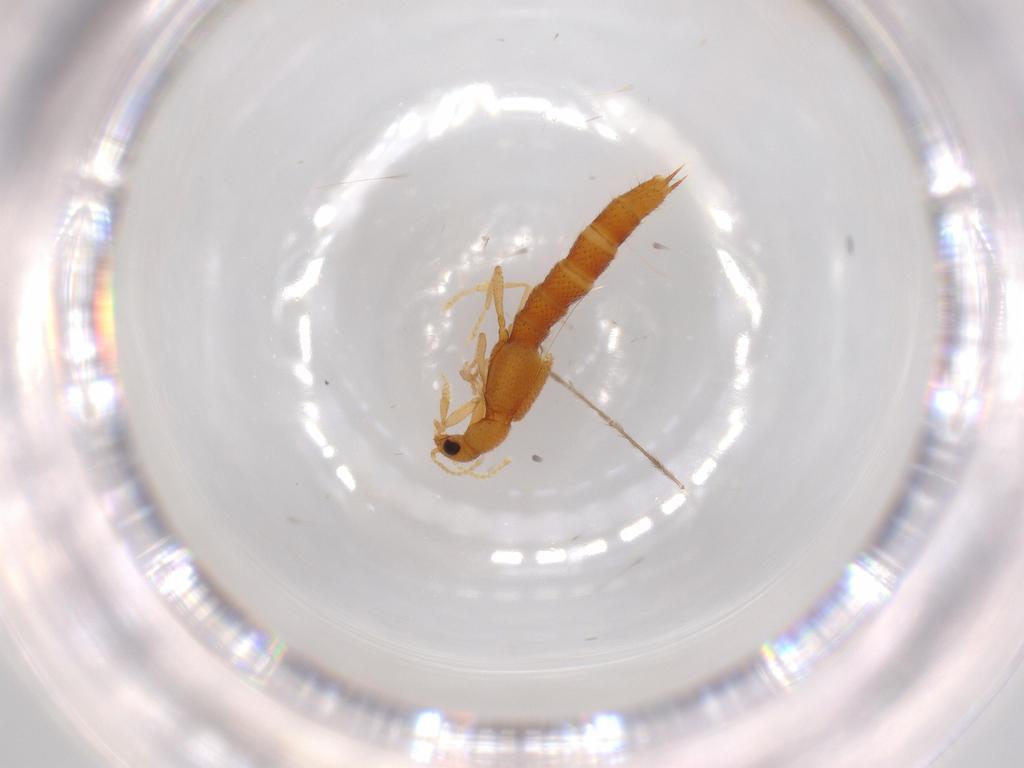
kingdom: Animalia
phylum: Arthropoda
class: Insecta
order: Coleoptera
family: Staphylinidae
